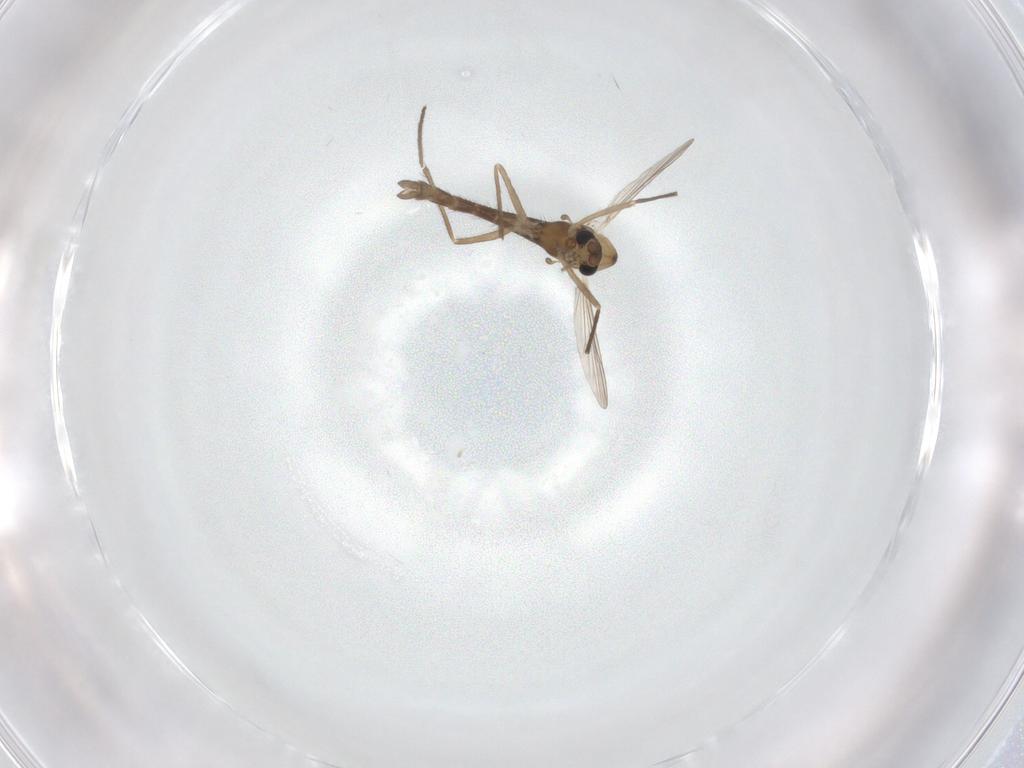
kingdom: Animalia
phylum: Arthropoda
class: Insecta
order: Diptera
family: Chironomidae
